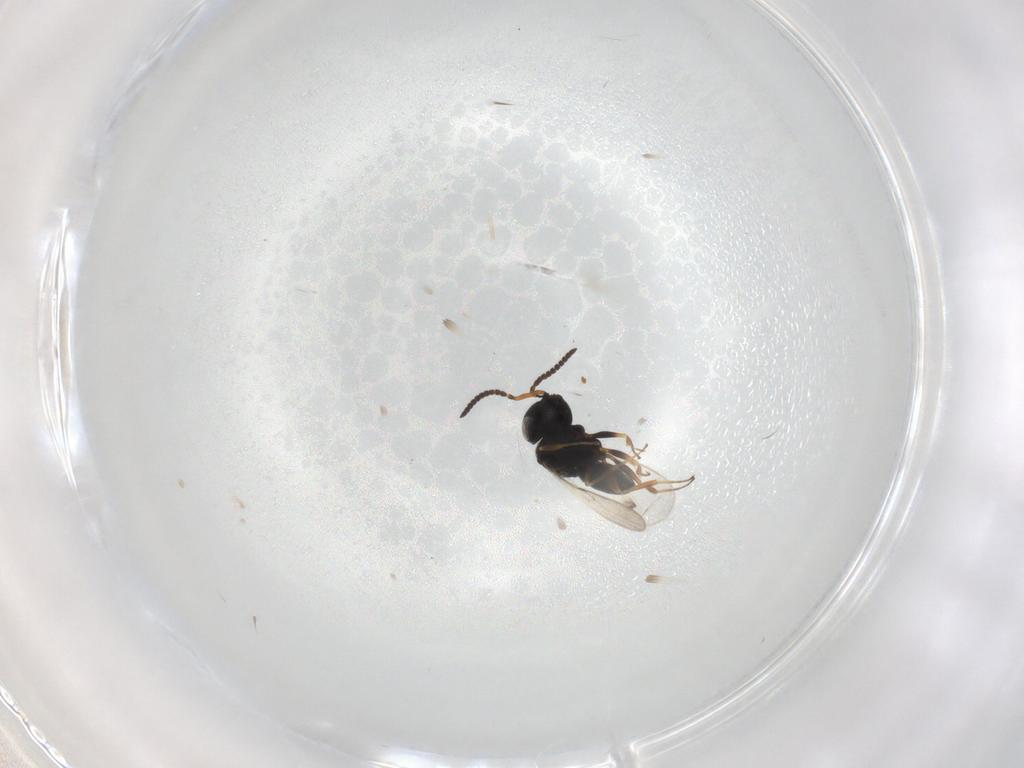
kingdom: Animalia
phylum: Arthropoda
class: Insecta
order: Hymenoptera
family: Scelionidae
